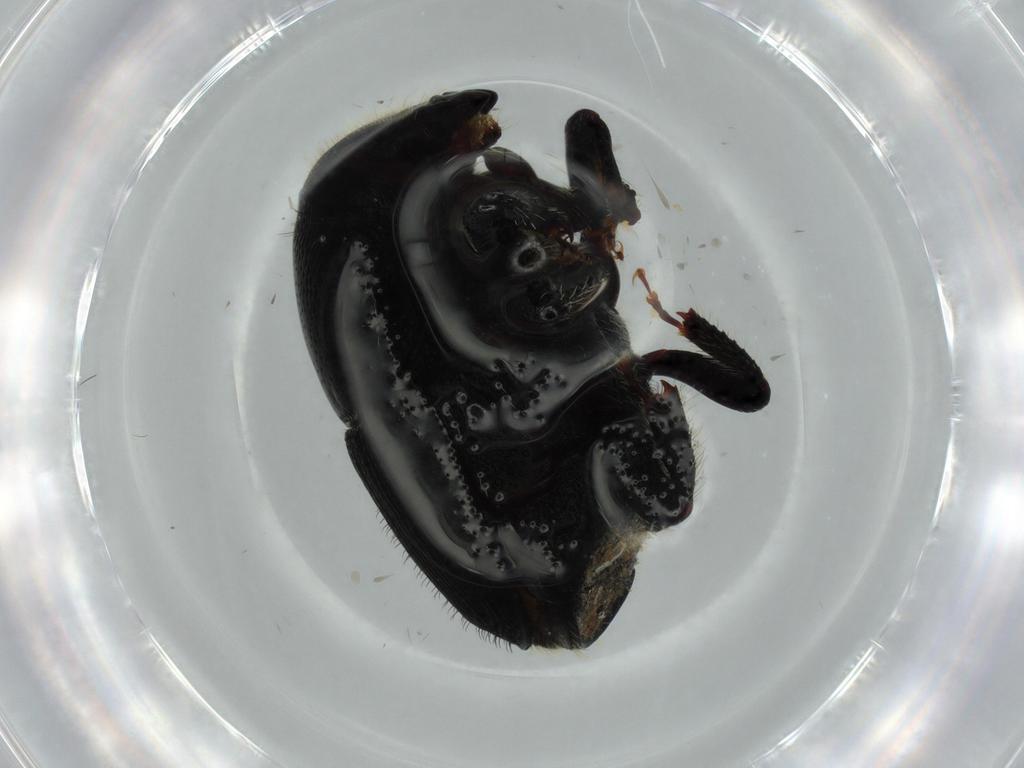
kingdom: Animalia
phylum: Arthropoda
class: Insecta
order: Coleoptera
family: Curculionidae
